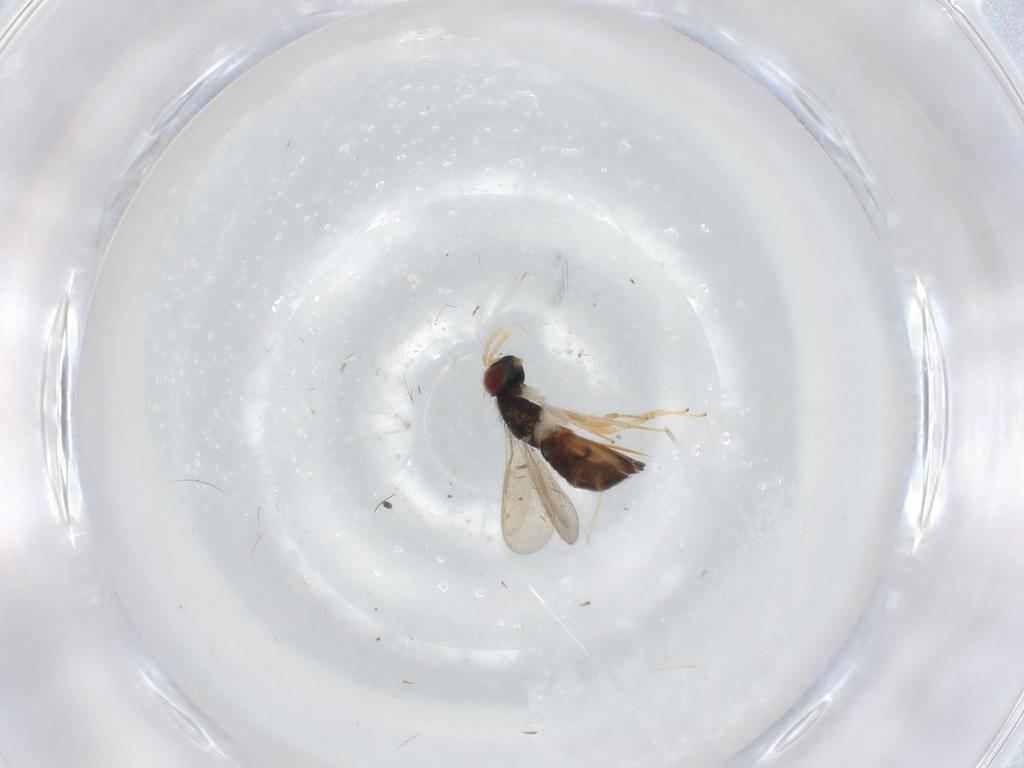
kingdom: Animalia
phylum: Arthropoda
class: Insecta
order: Hymenoptera
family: Eulophidae
